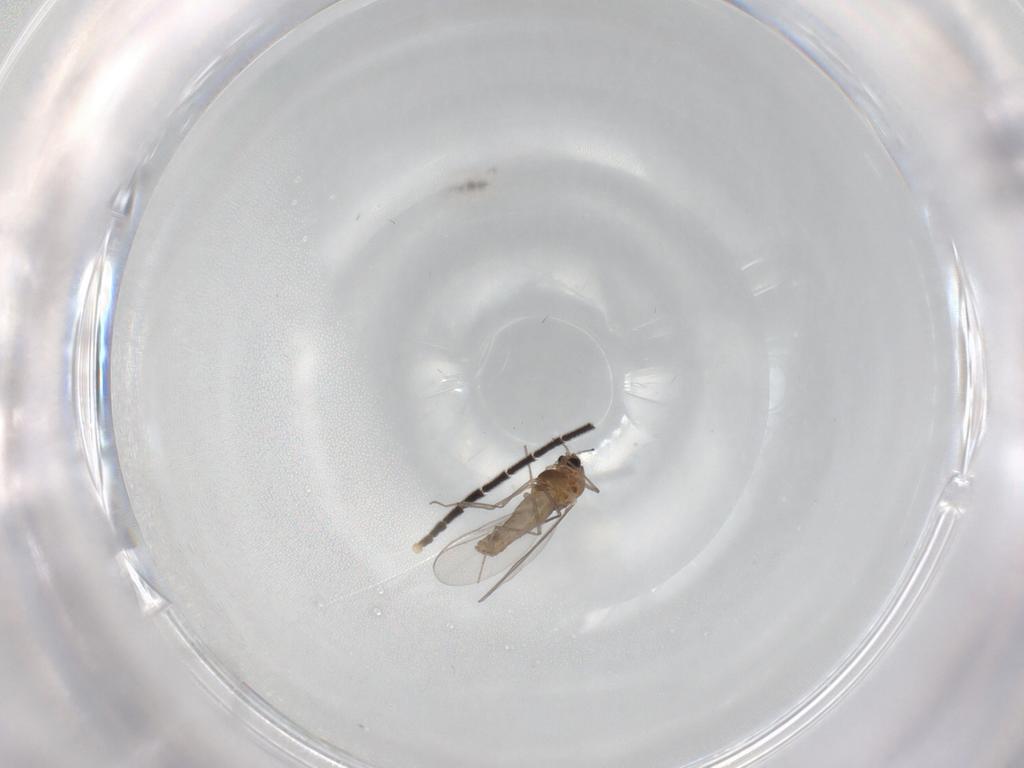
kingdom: Animalia
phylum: Arthropoda
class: Insecta
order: Diptera
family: Chironomidae
